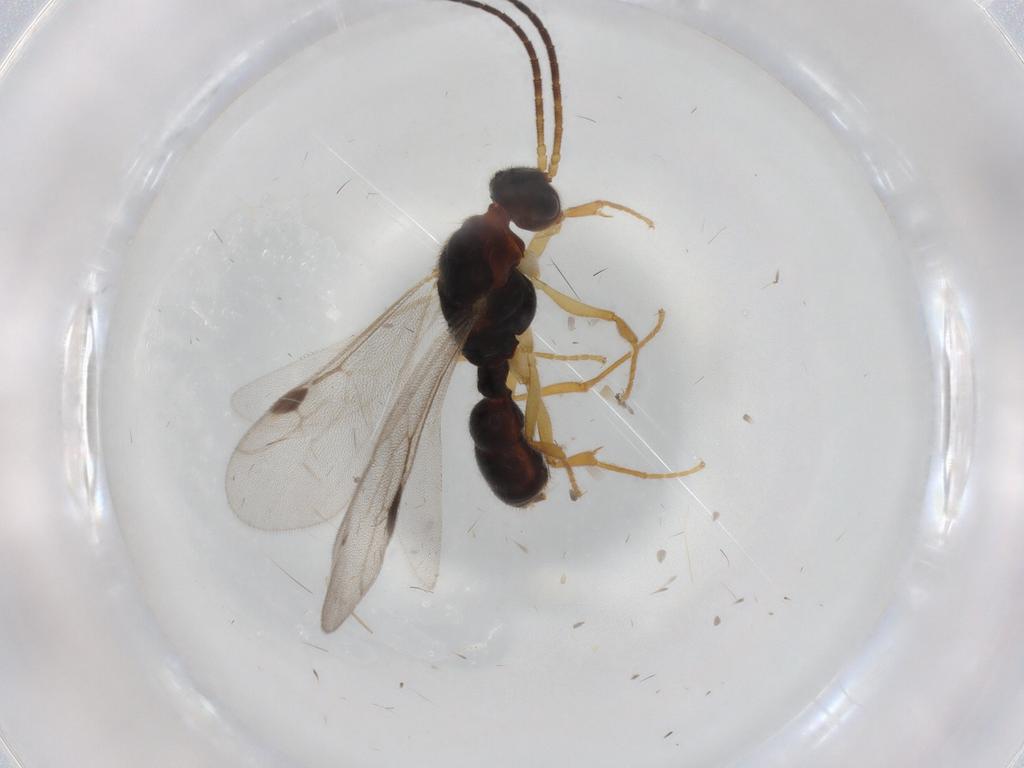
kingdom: Animalia
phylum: Arthropoda
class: Insecta
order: Hymenoptera
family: Formicidae
